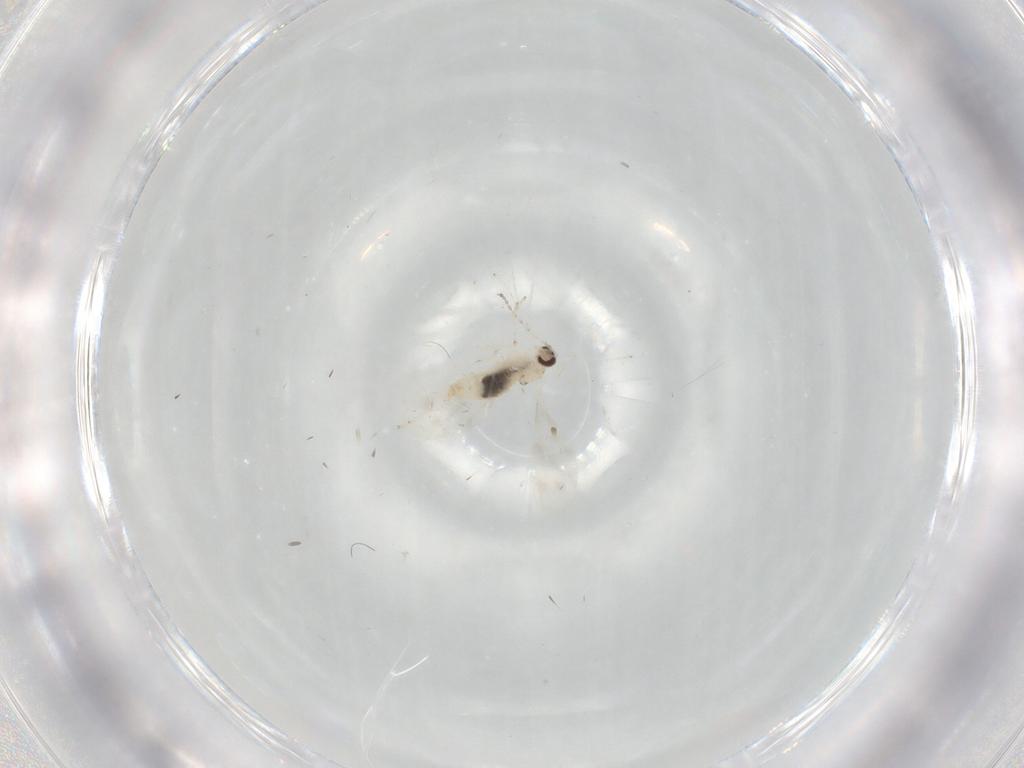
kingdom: Animalia
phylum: Arthropoda
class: Insecta
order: Diptera
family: Cecidomyiidae
